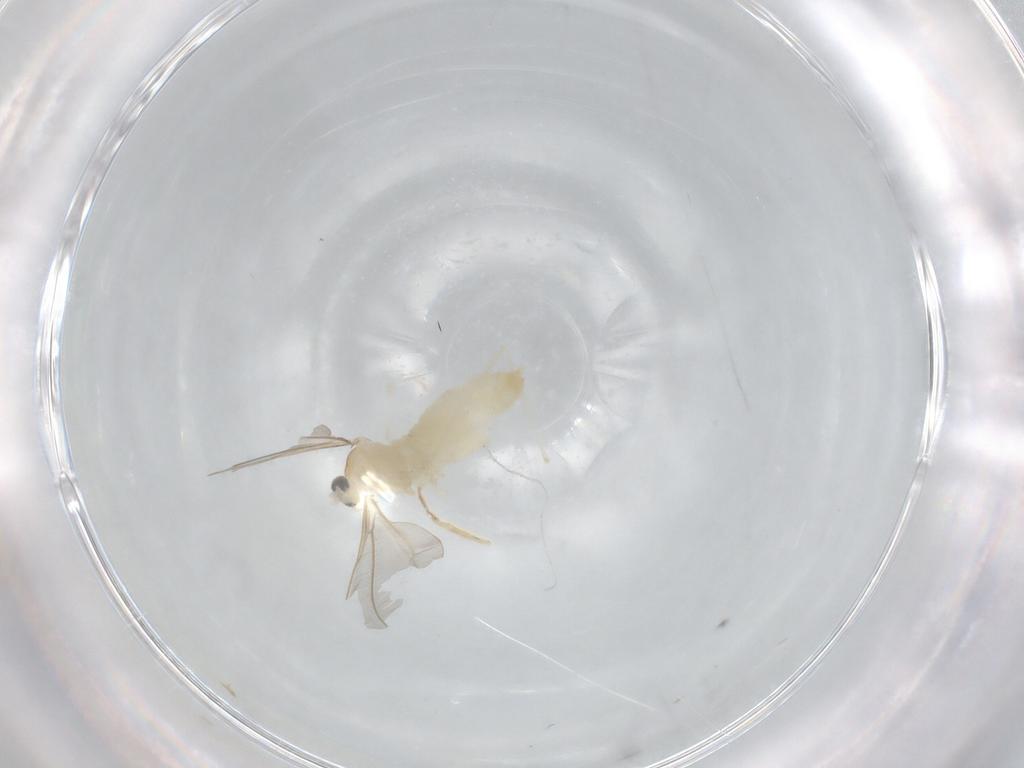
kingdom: Animalia
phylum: Arthropoda
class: Insecta
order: Diptera
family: Cecidomyiidae
